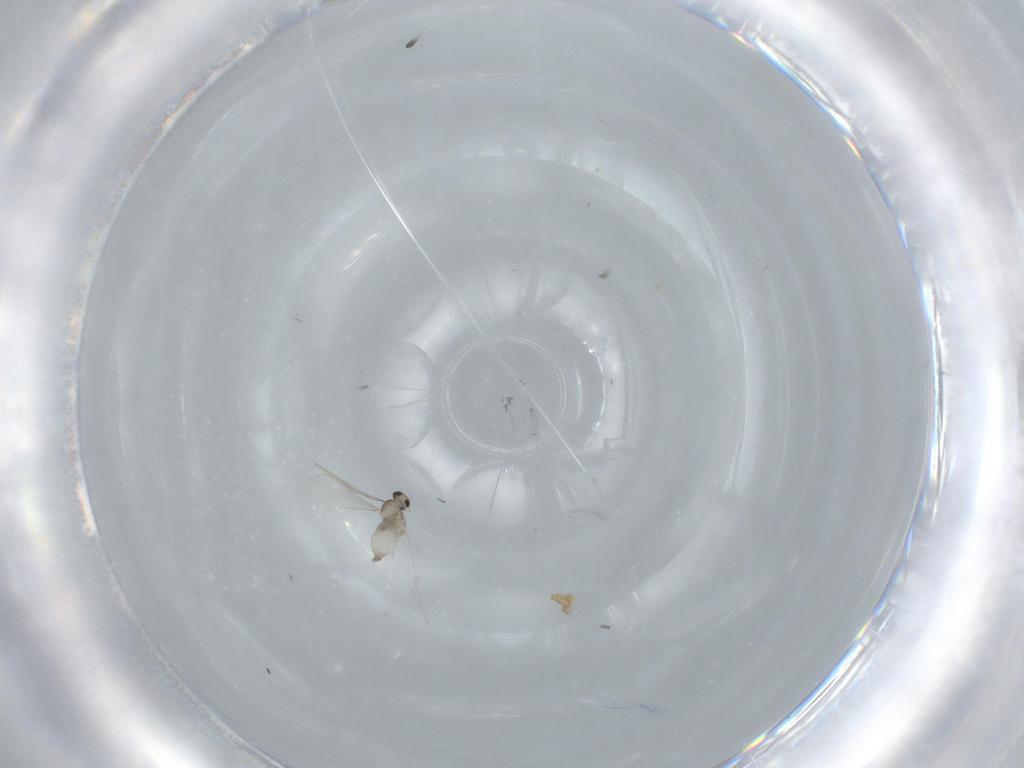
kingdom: Animalia
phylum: Arthropoda
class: Insecta
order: Diptera
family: Cecidomyiidae
